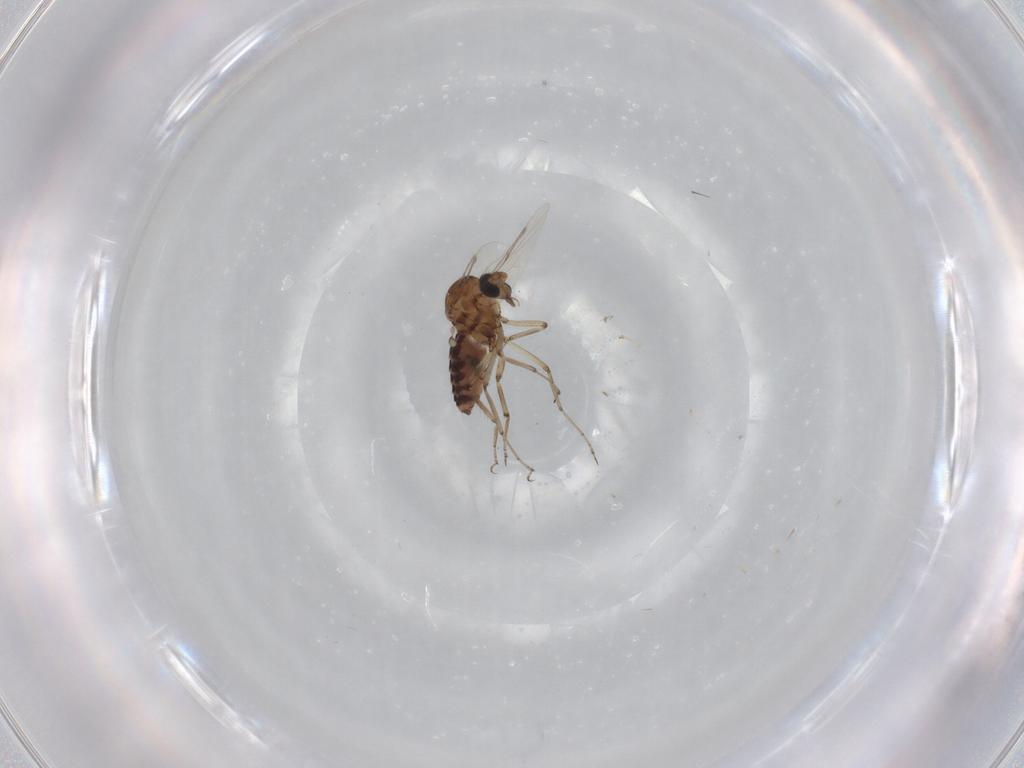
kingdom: Animalia
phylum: Arthropoda
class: Insecta
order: Diptera
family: Ceratopogonidae
